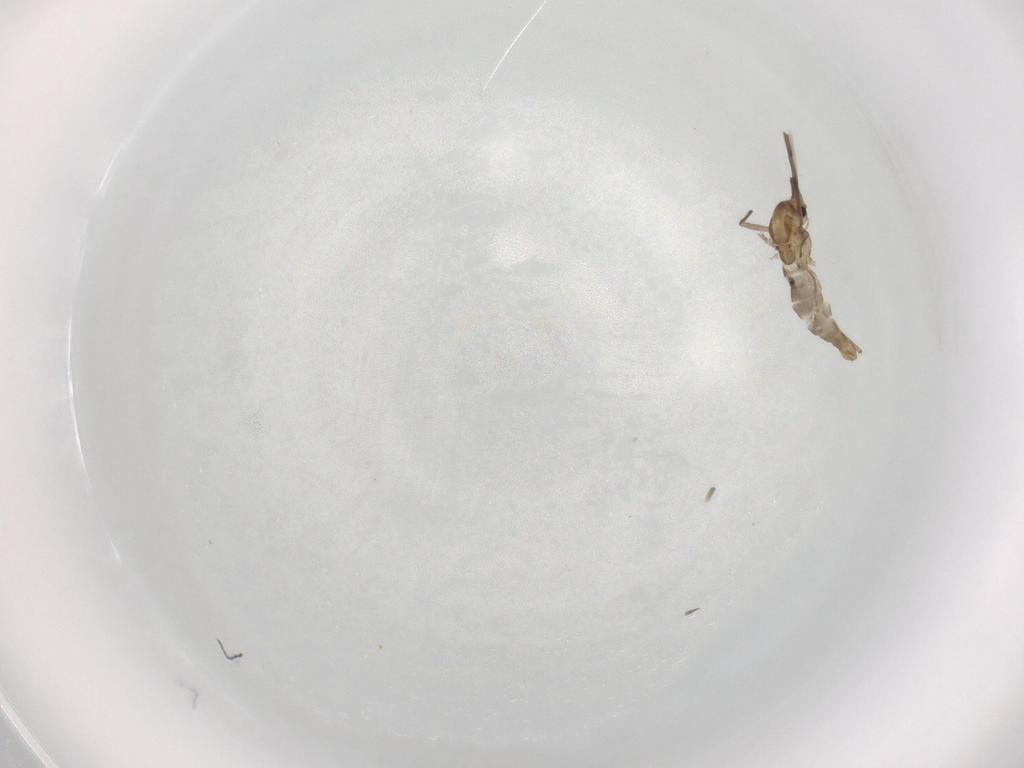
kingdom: Animalia
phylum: Arthropoda
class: Insecta
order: Diptera
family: Chironomidae
